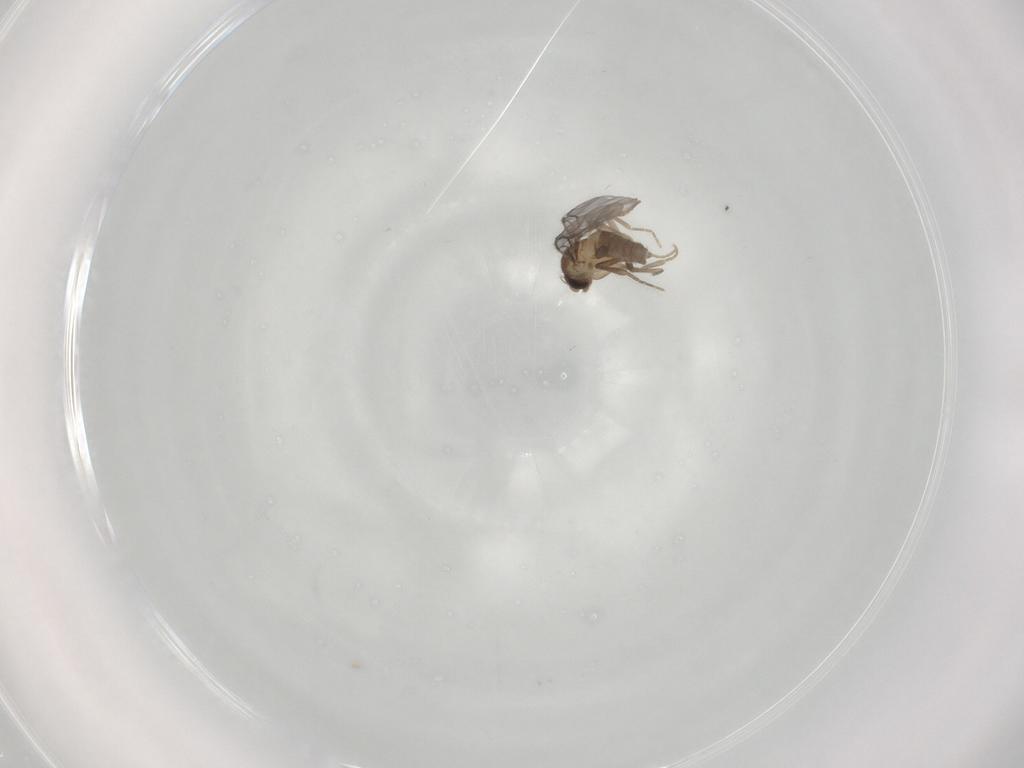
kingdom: Animalia
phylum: Arthropoda
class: Insecta
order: Diptera
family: Cecidomyiidae
